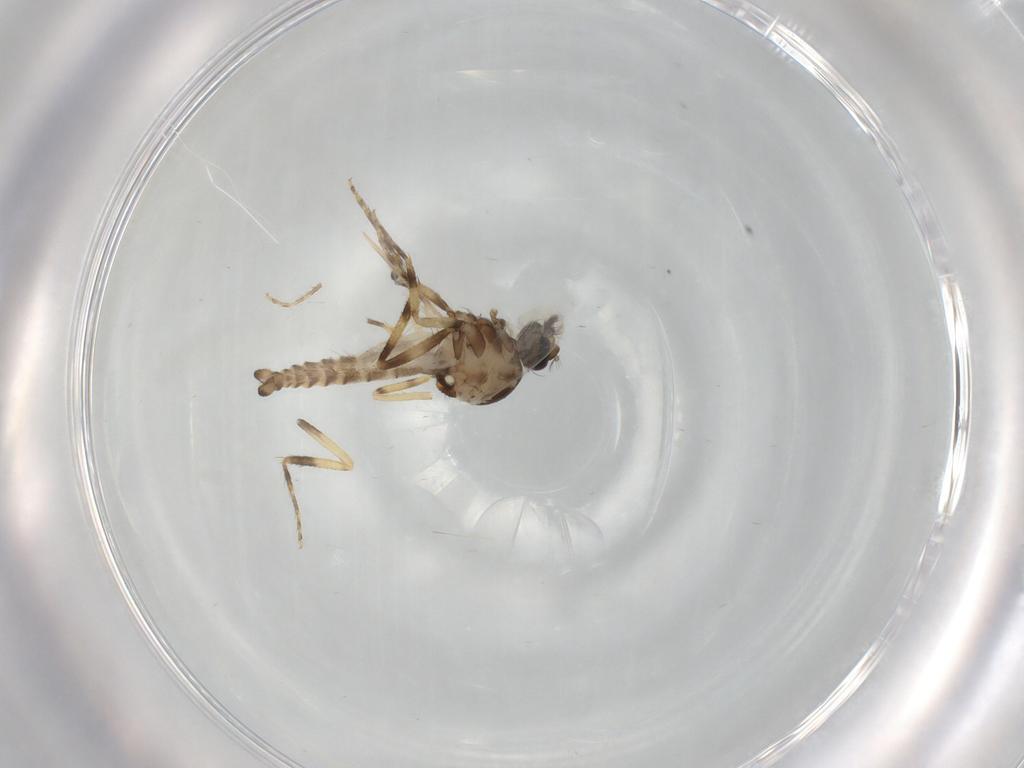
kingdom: Animalia
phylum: Arthropoda
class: Insecta
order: Diptera
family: Ceratopogonidae
